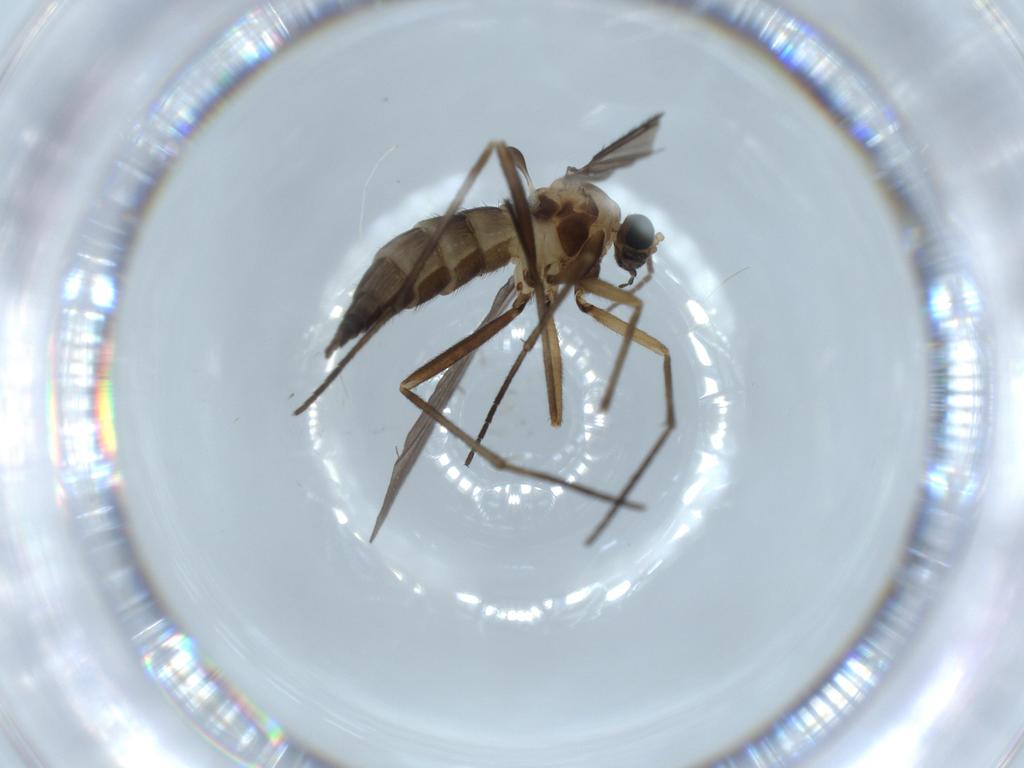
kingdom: Animalia
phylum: Arthropoda
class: Insecta
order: Diptera
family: Sciaridae
